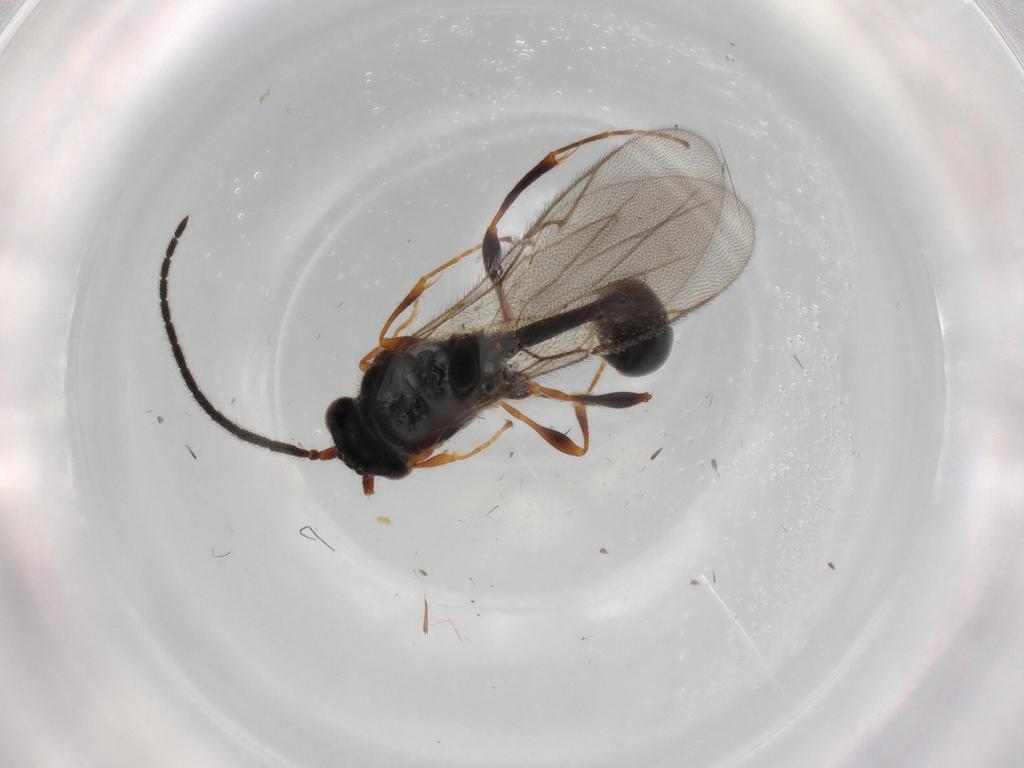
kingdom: Animalia
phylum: Arthropoda
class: Insecta
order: Hymenoptera
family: Diapriidae
